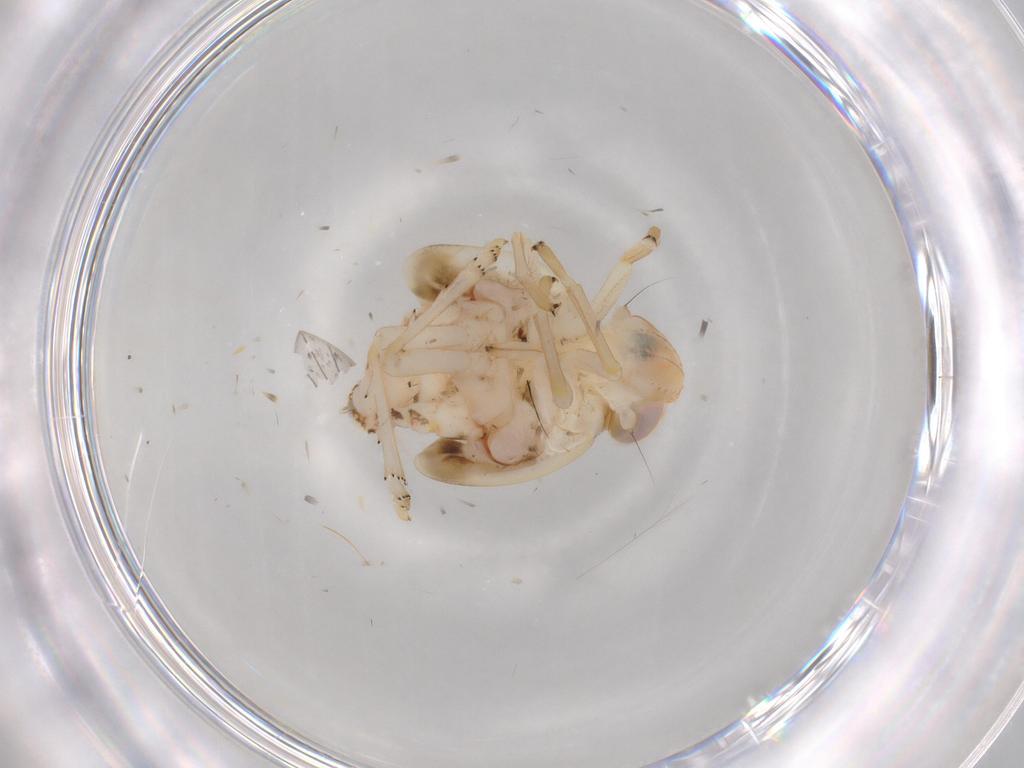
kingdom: Animalia
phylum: Arthropoda
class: Insecta
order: Hemiptera
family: Nogodinidae
